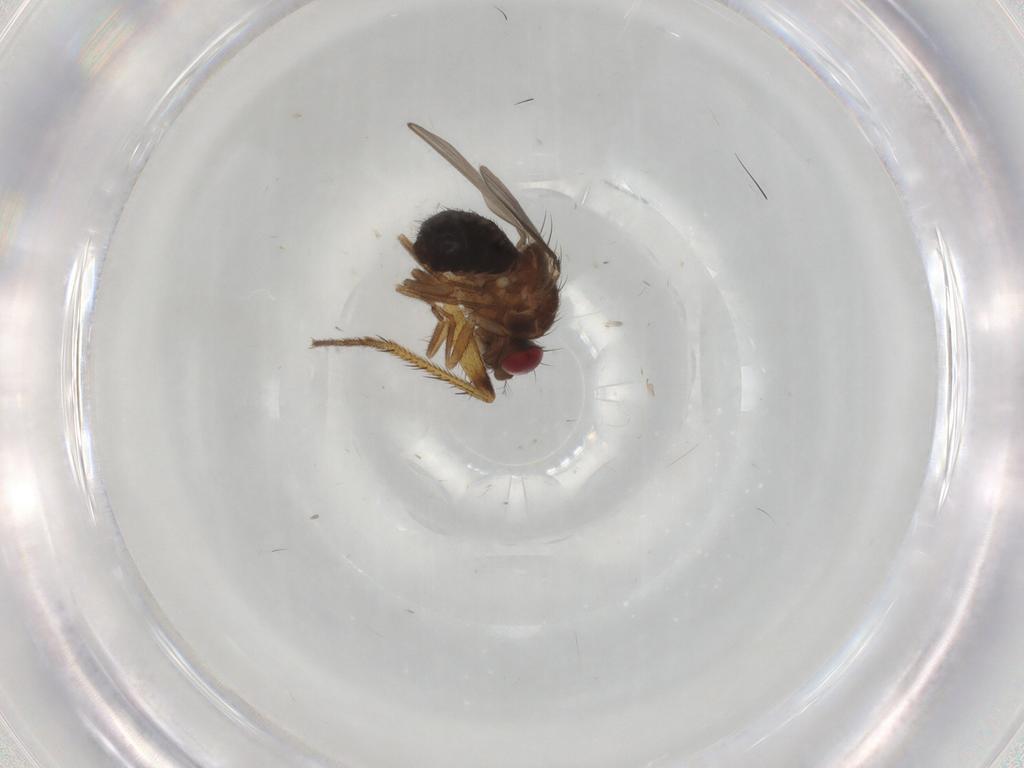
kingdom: Animalia
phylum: Arthropoda
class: Insecta
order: Diptera
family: Drosophilidae
